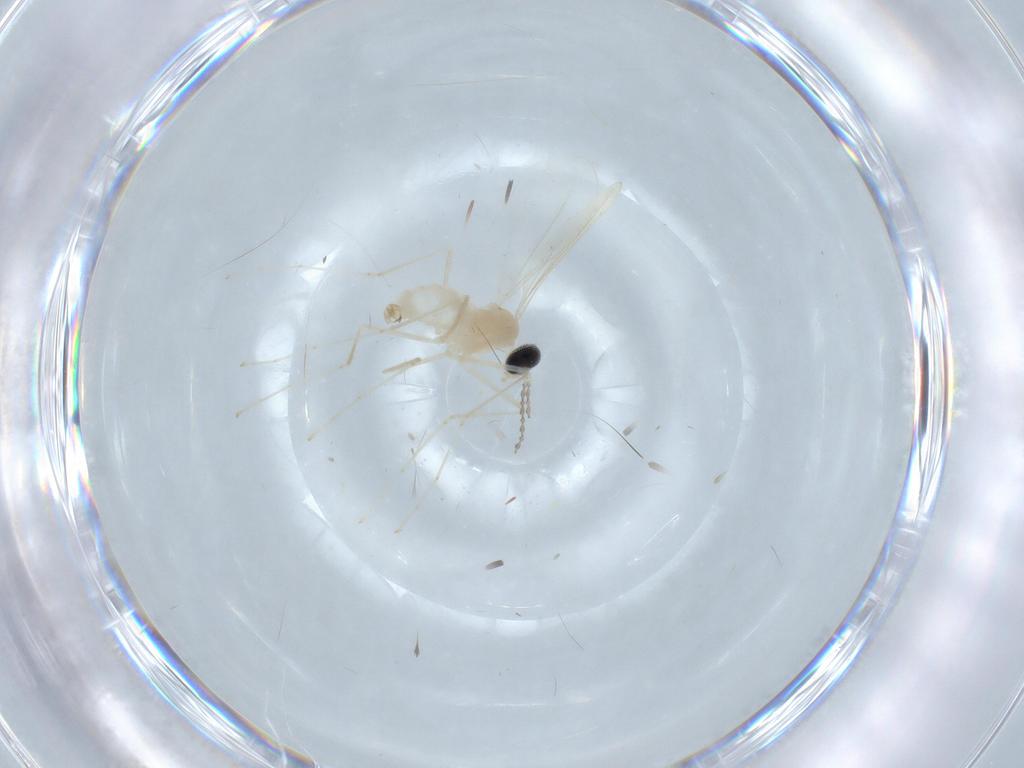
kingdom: Animalia
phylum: Arthropoda
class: Insecta
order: Diptera
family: Cecidomyiidae
